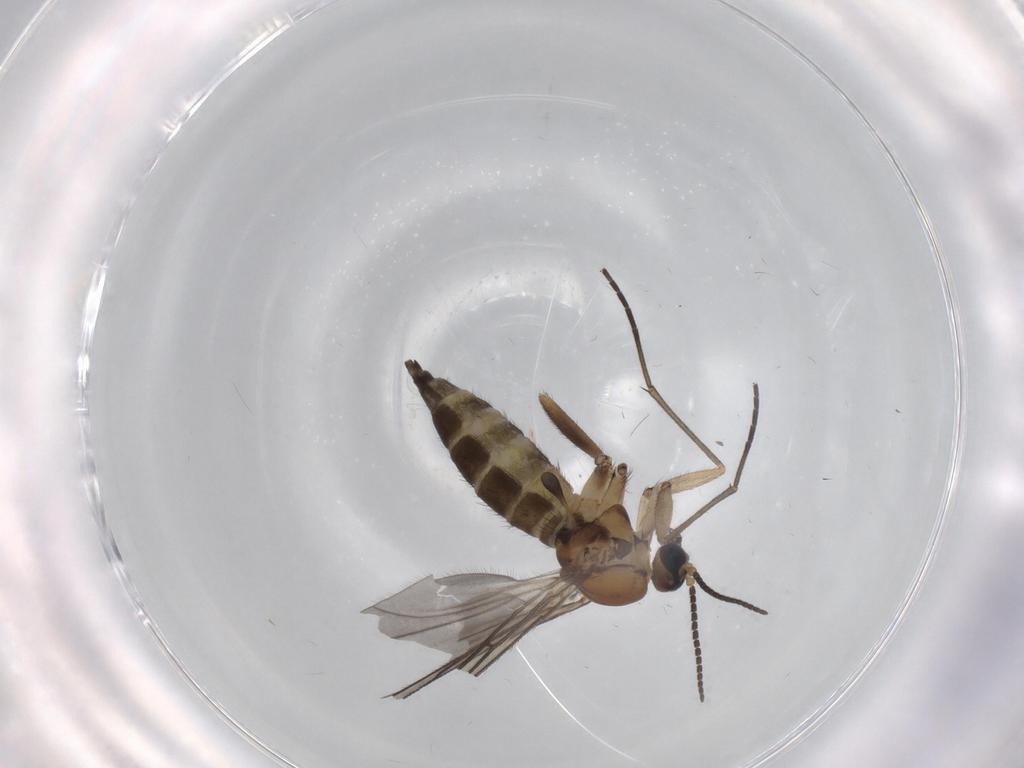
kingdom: Animalia
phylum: Arthropoda
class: Insecta
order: Diptera
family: Sciaridae
